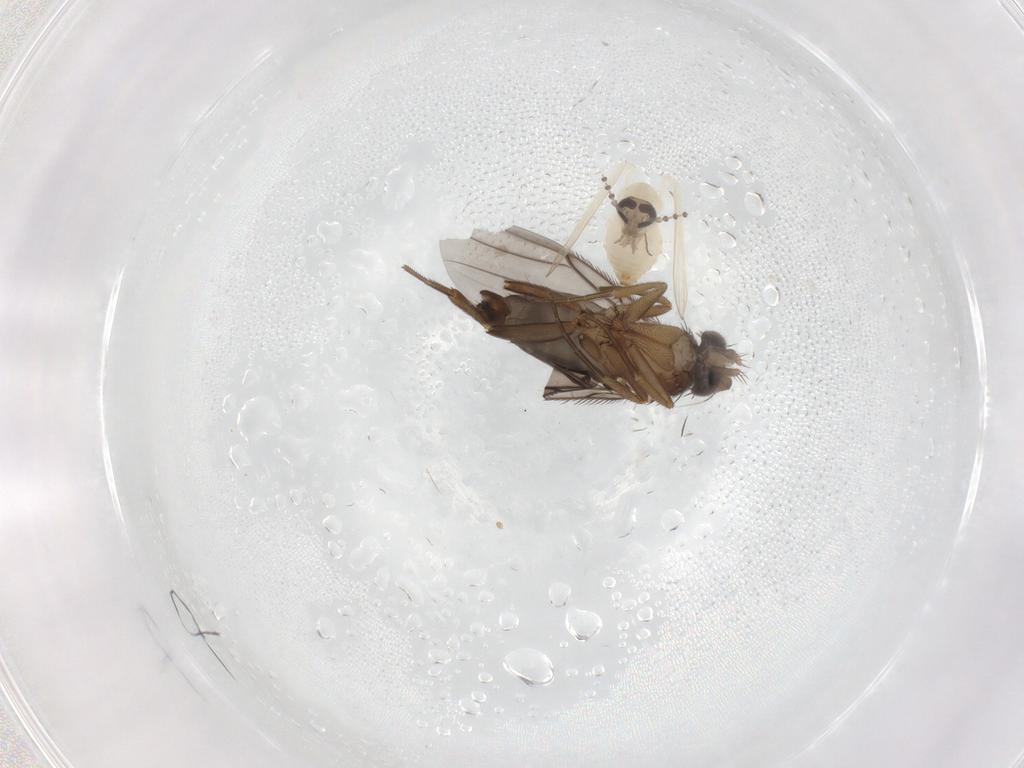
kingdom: Animalia
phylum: Arthropoda
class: Insecta
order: Diptera
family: Psychodidae
